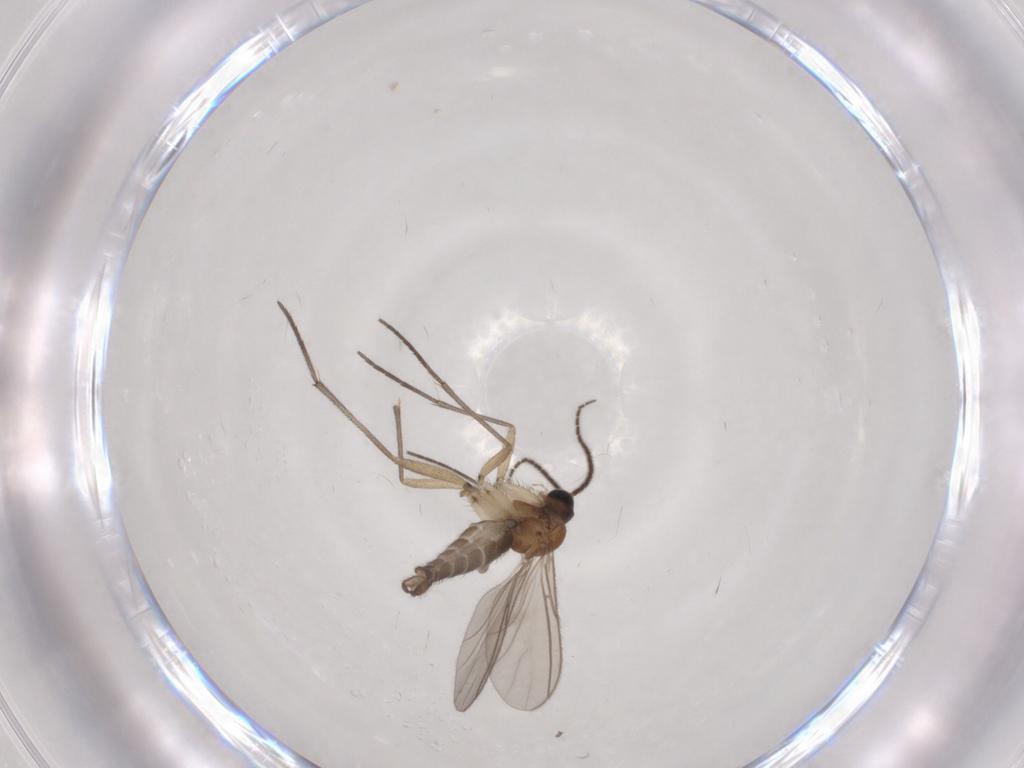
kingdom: Animalia
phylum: Arthropoda
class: Insecta
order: Diptera
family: Sciaridae
